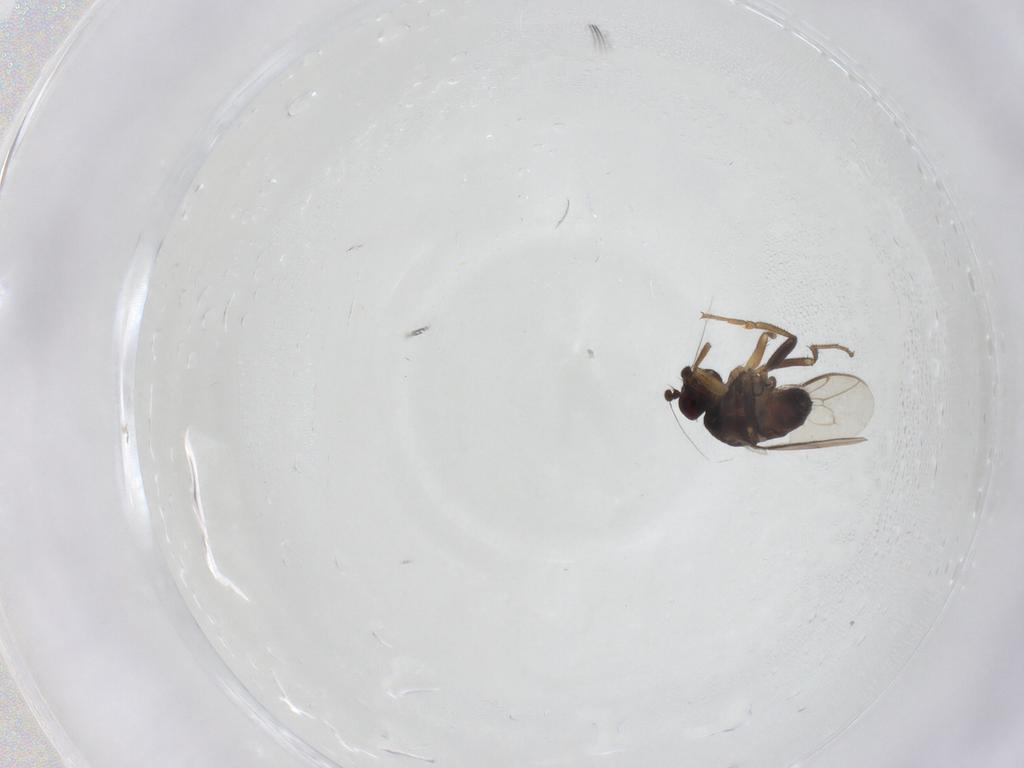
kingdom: Animalia
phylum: Arthropoda
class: Insecta
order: Diptera
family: Sphaeroceridae
